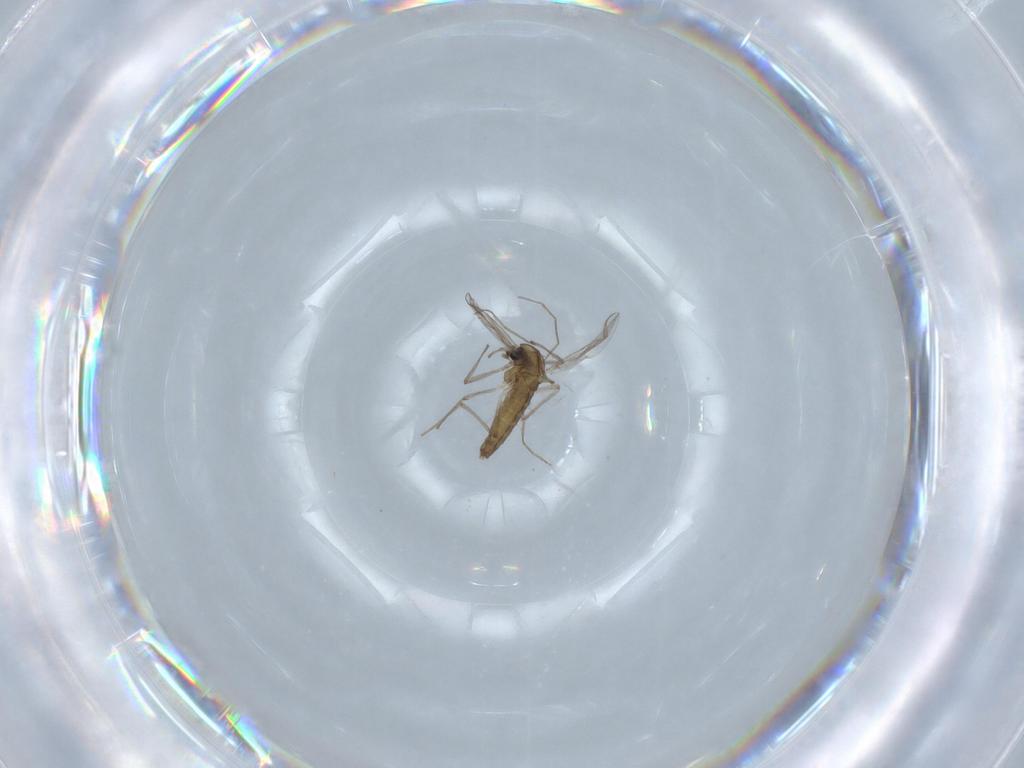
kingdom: Animalia
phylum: Arthropoda
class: Insecta
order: Diptera
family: Chironomidae
